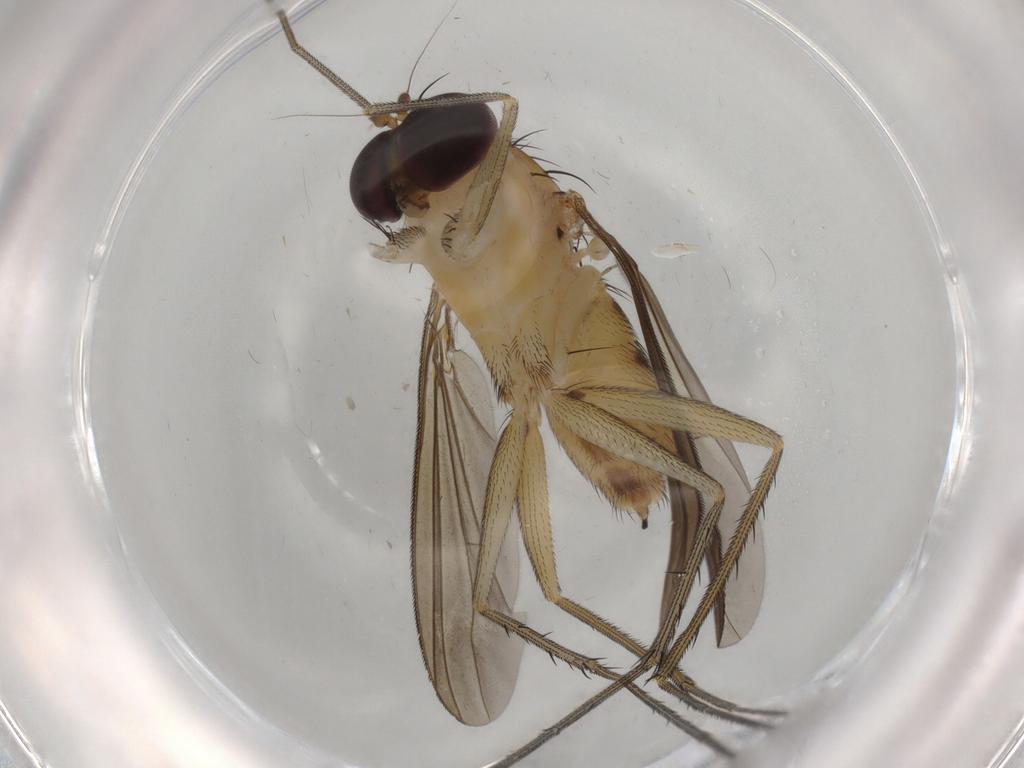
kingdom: Animalia
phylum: Arthropoda
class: Insecta
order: Diptera
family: Dolichopodidae
